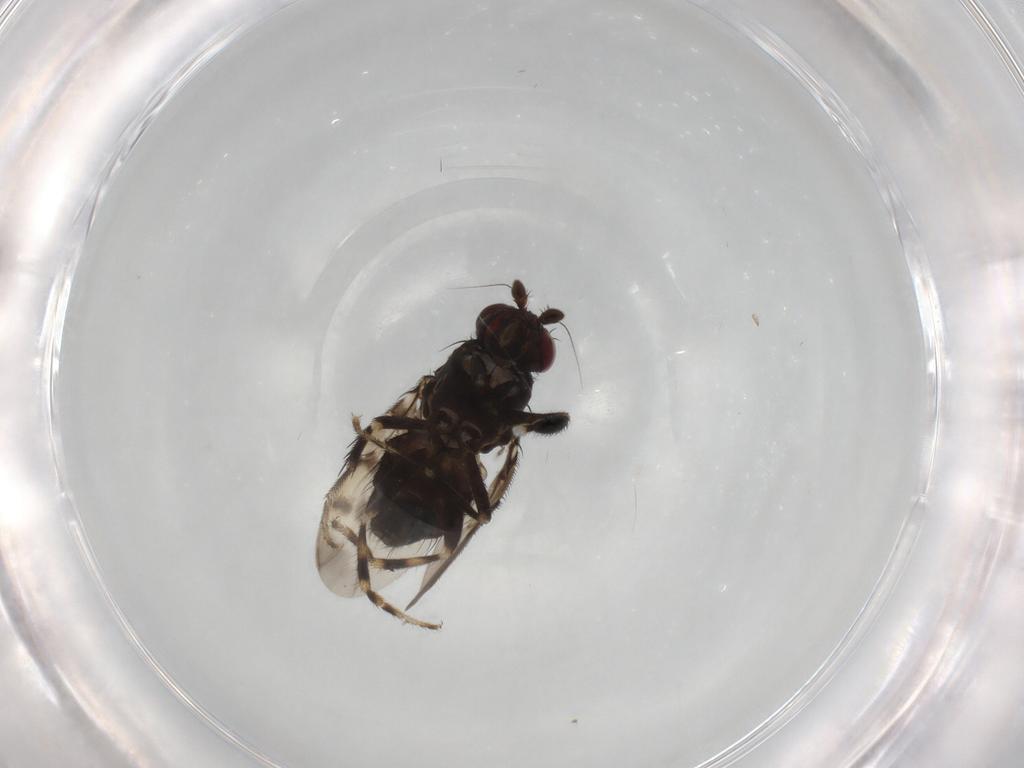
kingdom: Animalia
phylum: Arthropoda
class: Insecta
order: Diptera
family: Sphaeroceridae
